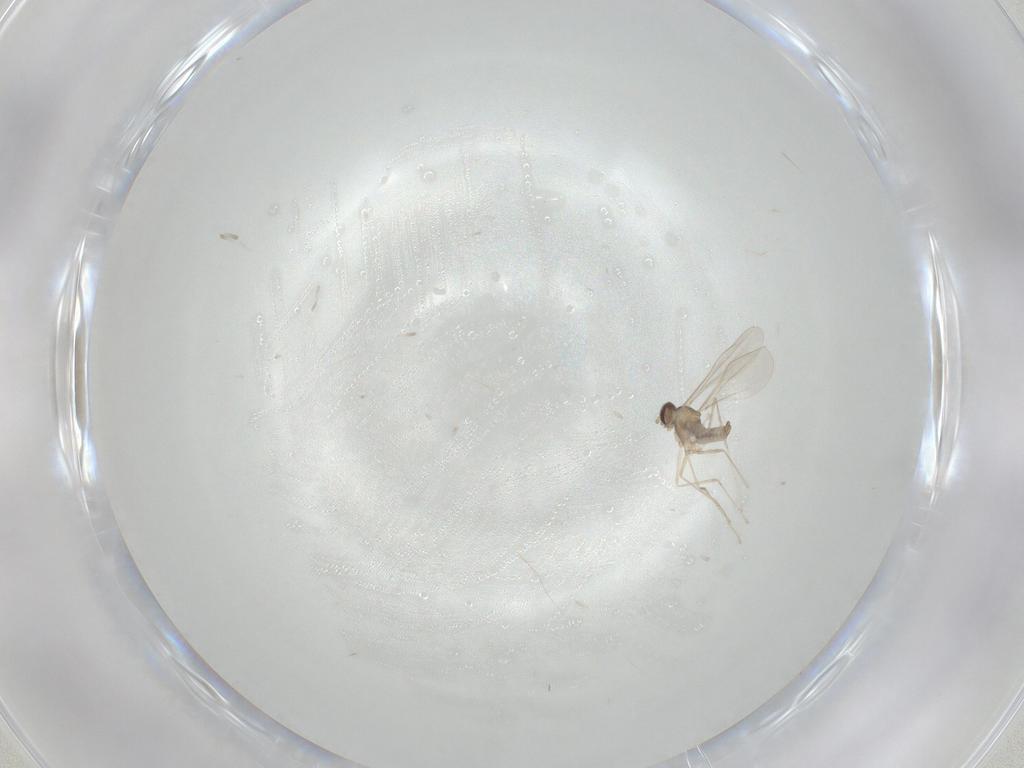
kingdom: Animalia
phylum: Arthropoda
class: Insecta
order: Diptera
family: Cecidomyiidae
